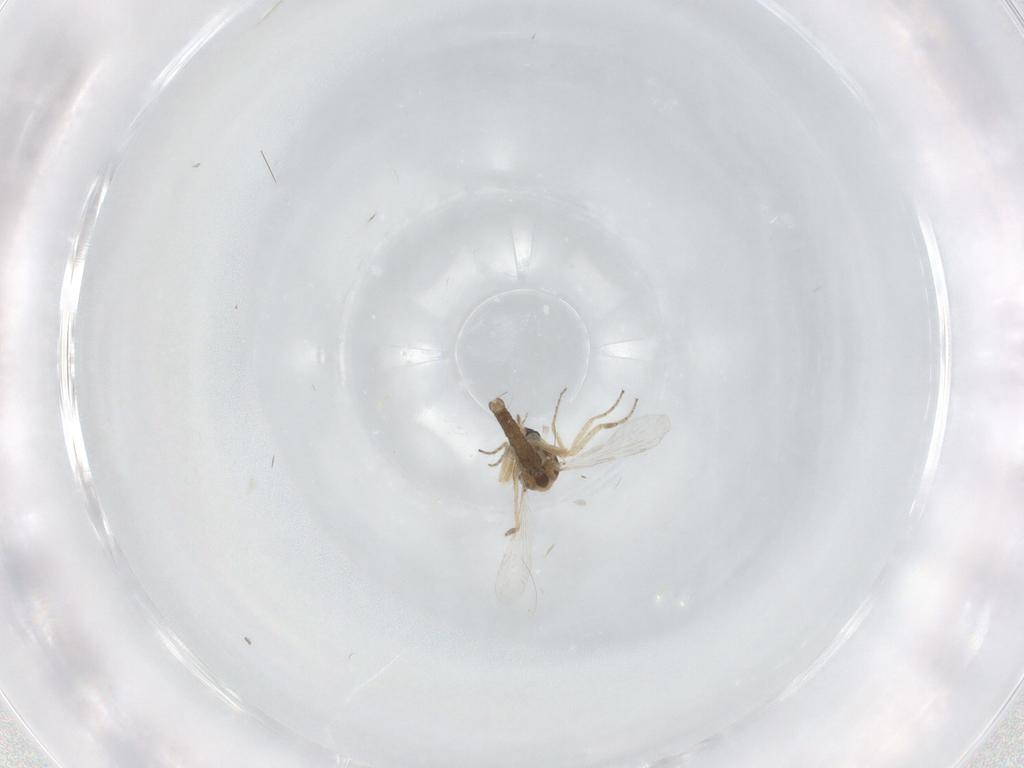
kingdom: Animalia
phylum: Arthropoda
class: Insecta
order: Diptera
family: Ceratopogonidae
